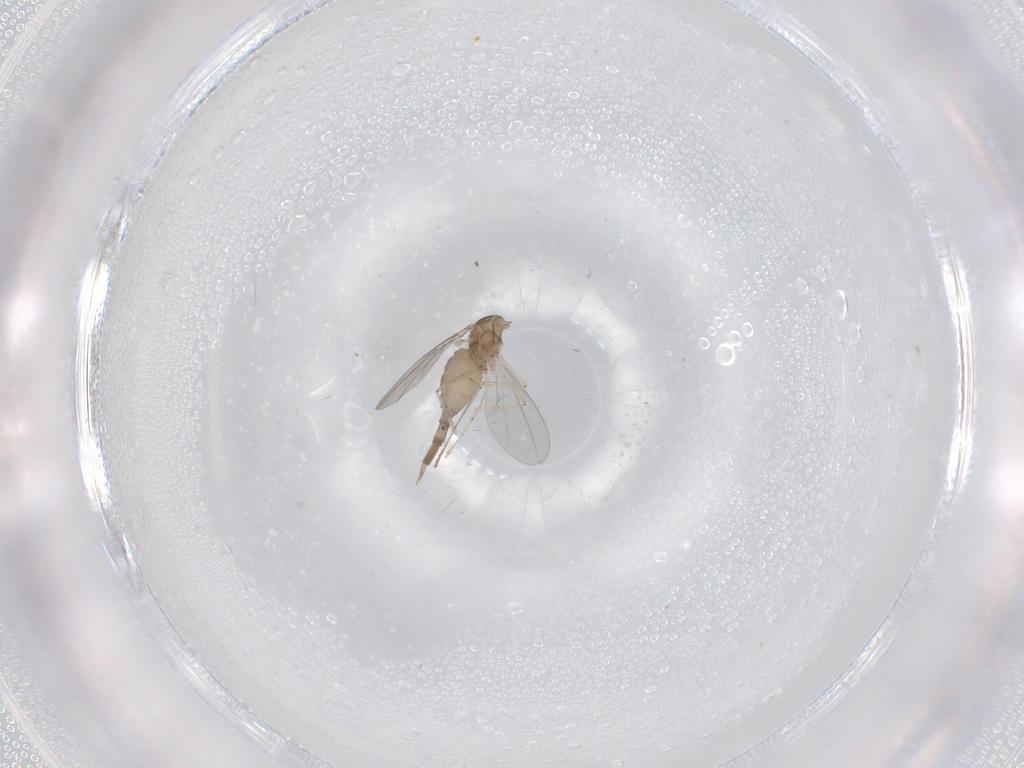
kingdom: Animalia
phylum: Arthropoda
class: Insecta
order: Diptera
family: Cecidomyiidae
